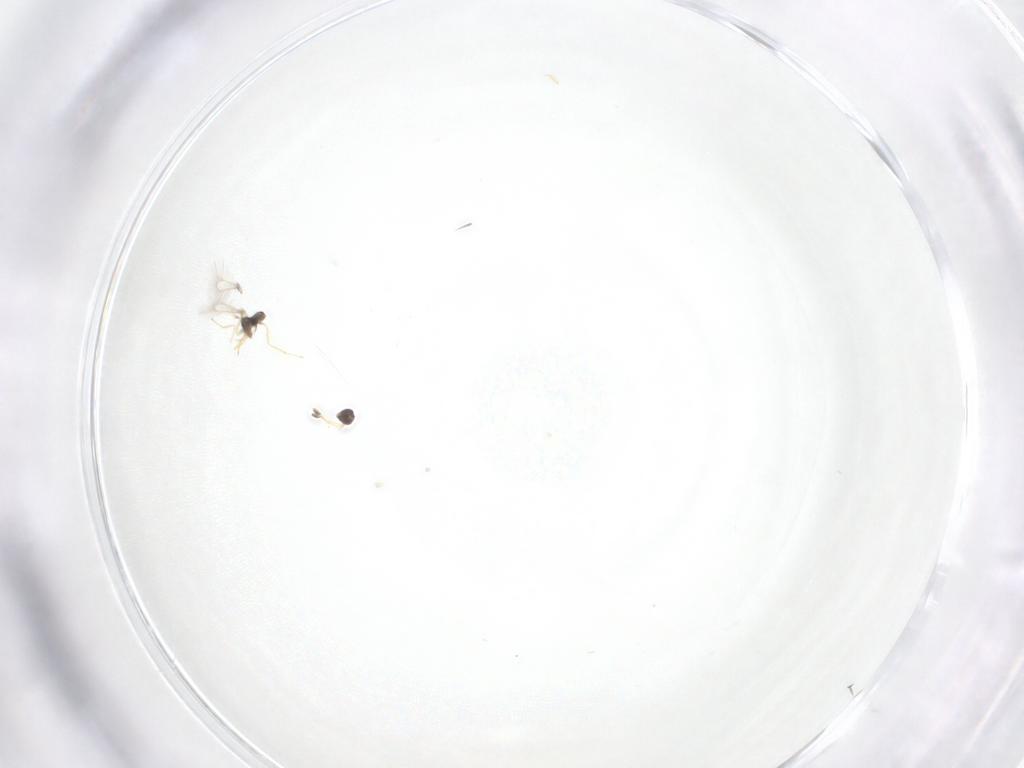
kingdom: Animalia
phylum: Arthropoda
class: Insecta
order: Hymenoptera
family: Mymaridae
